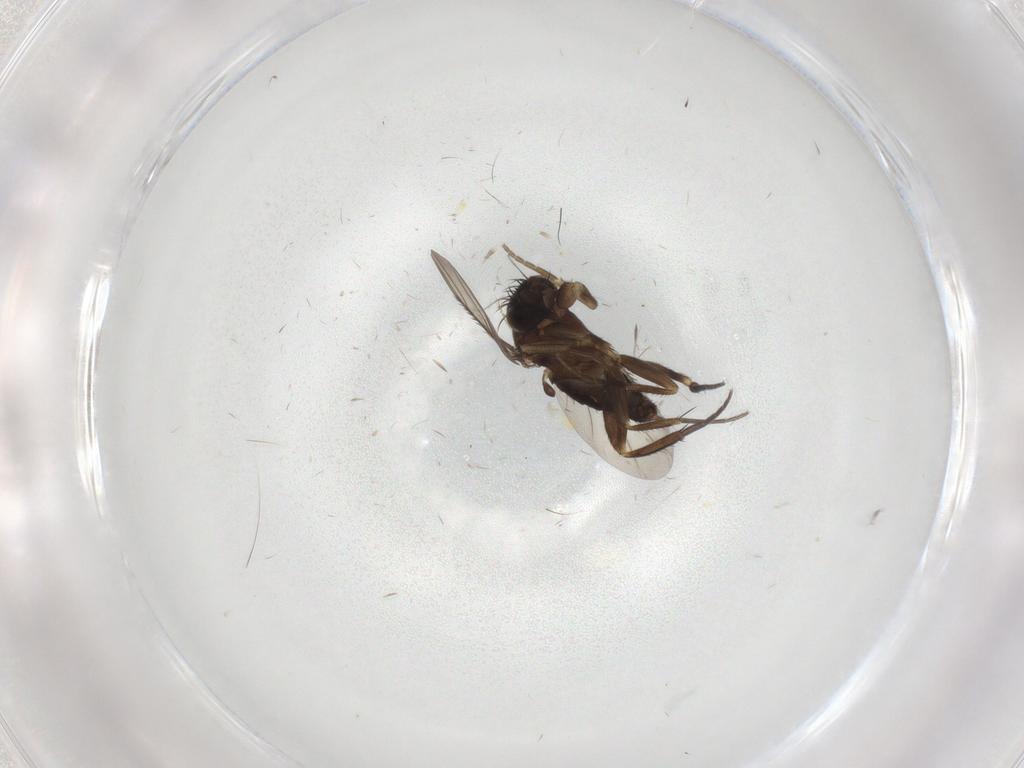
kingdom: Animalia
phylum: Arthropoda
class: Insecta
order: Diptera
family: Phoridae
